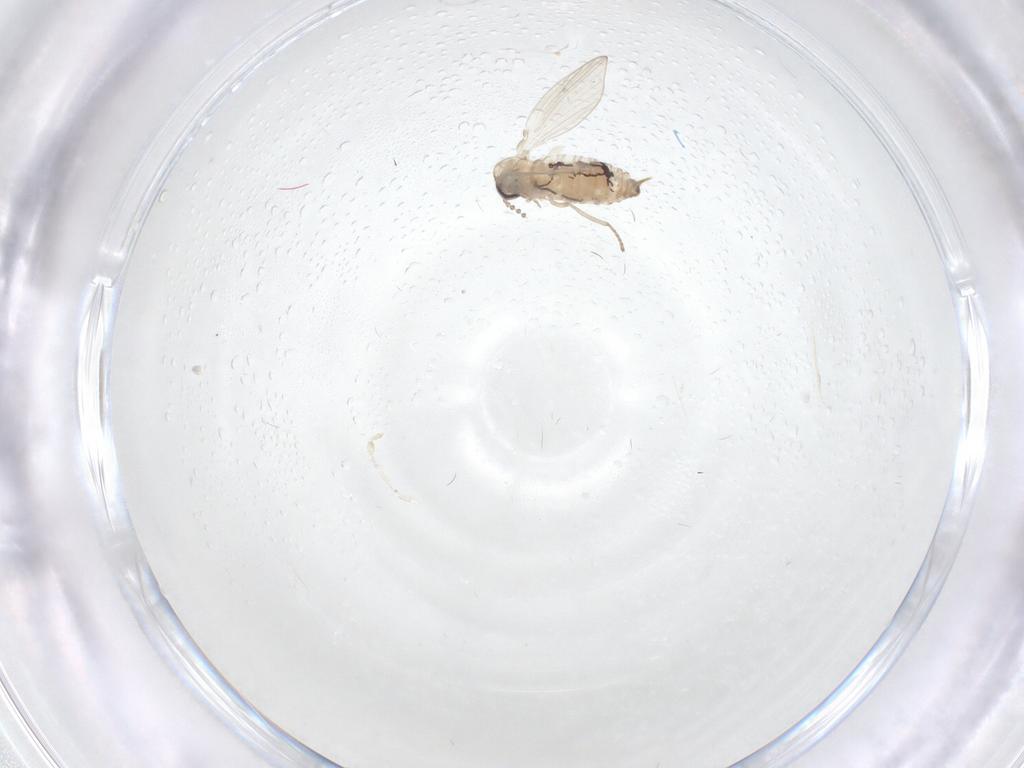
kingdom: Animalia
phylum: Arthropoda
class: Insecta
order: Diptera
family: Psychodidae
